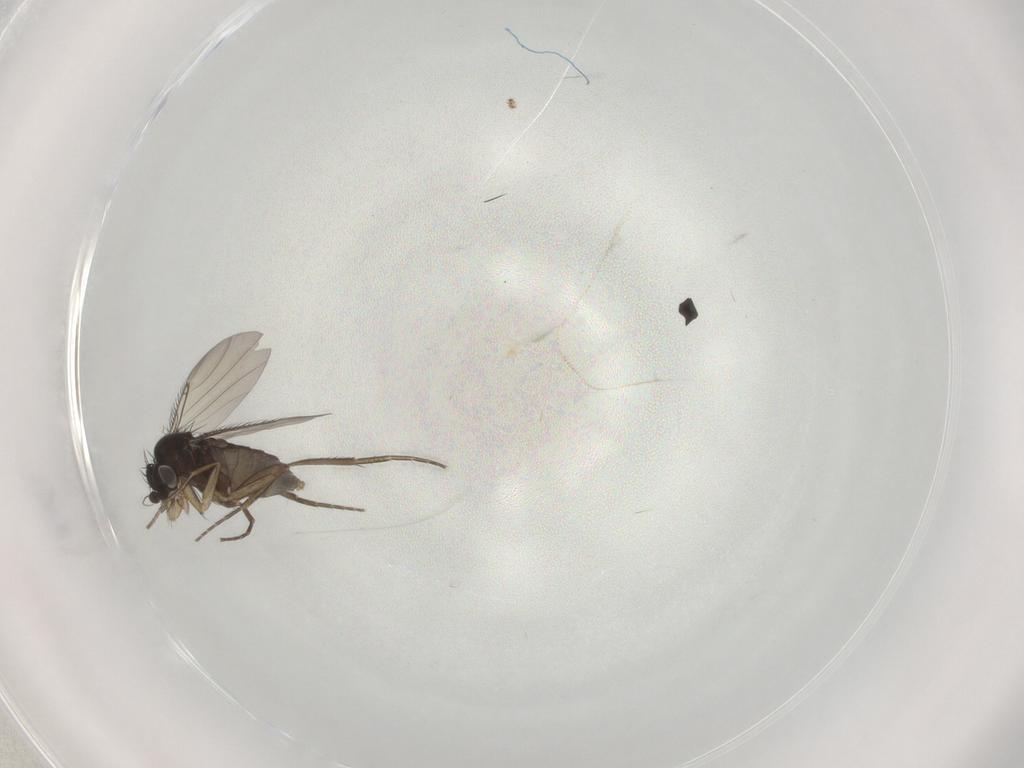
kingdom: Animalia
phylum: Arthropoda
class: Insecta
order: Diptera
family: Phoridae
